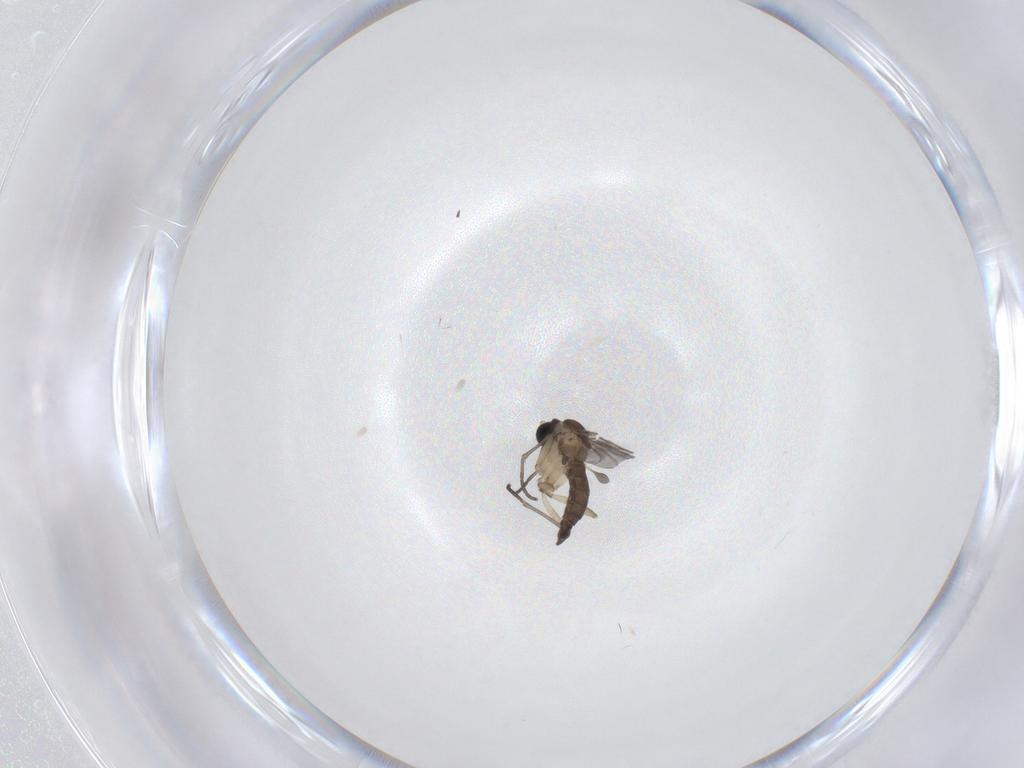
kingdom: Animalia
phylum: Arthropoda
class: Insecta
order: Diptera
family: Sciaridae
